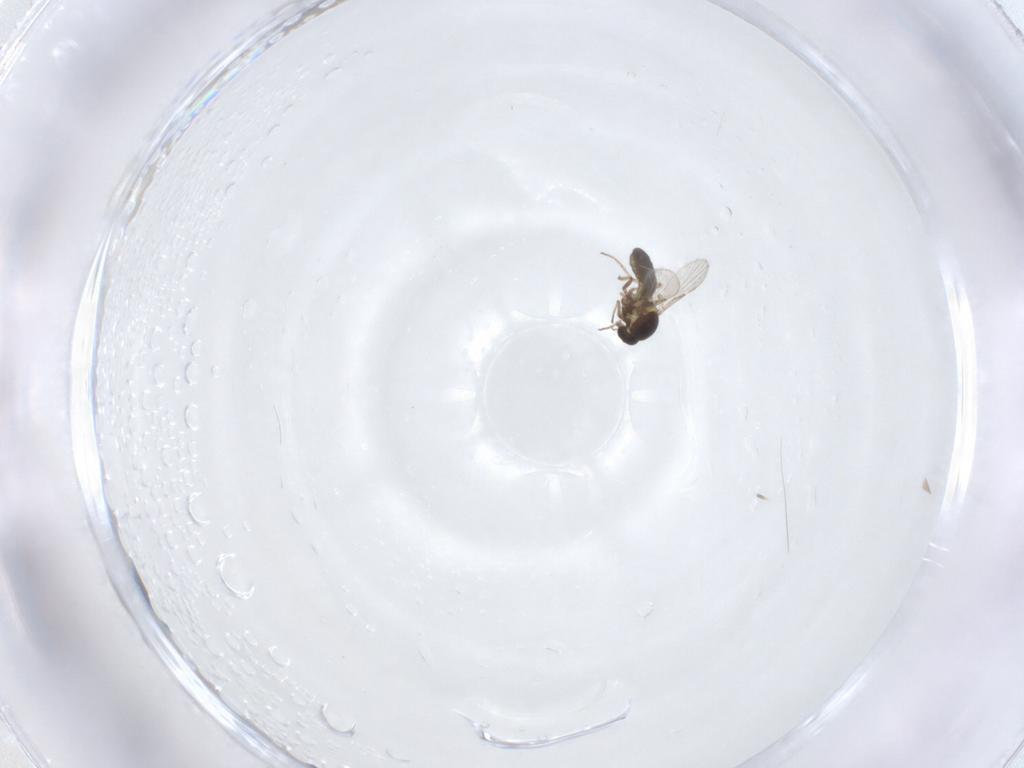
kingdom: Animalia
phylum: Arthropoda
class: Insecta
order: Diptera
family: Ceratopogonidae
